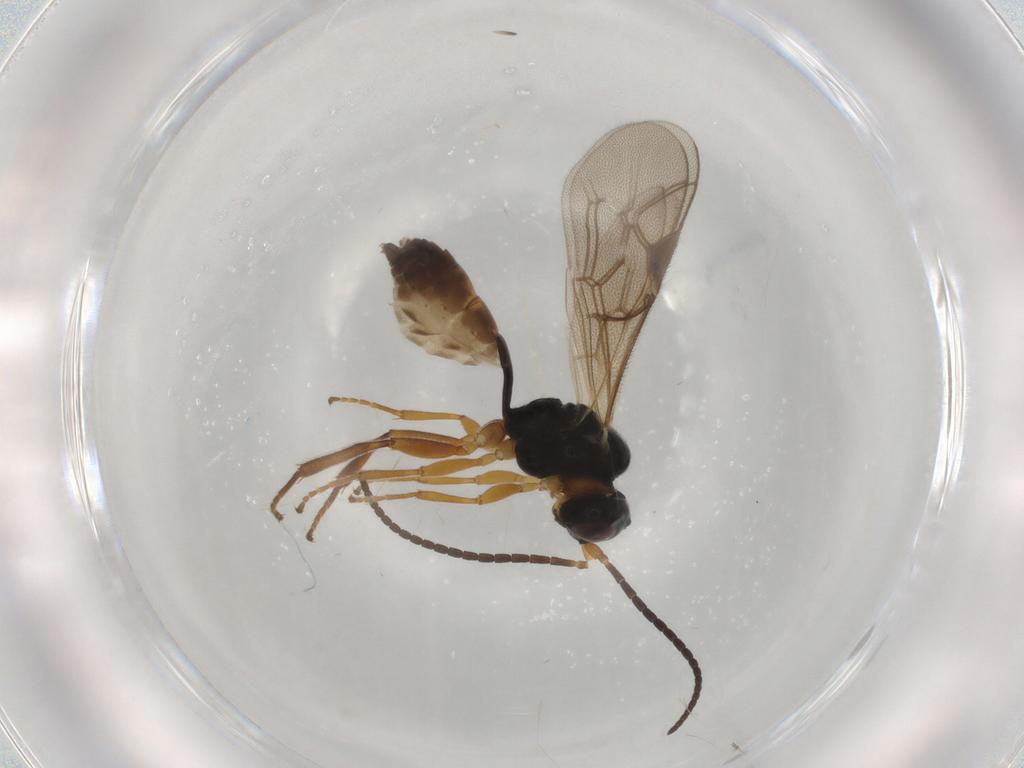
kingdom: Animalia
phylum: Arthropoda
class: Insecta
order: Hymenoptera
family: Ichneumonidae
